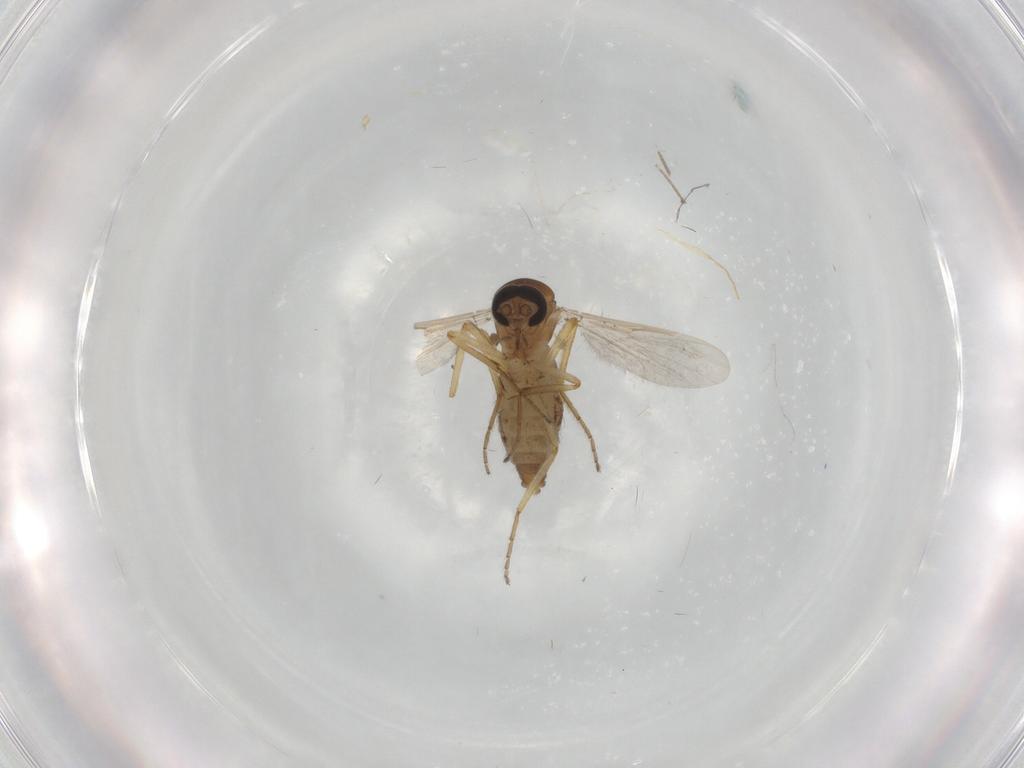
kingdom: Animalia
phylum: Arthropoda
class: Insecta
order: Diptera
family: Ceratopogonidae
